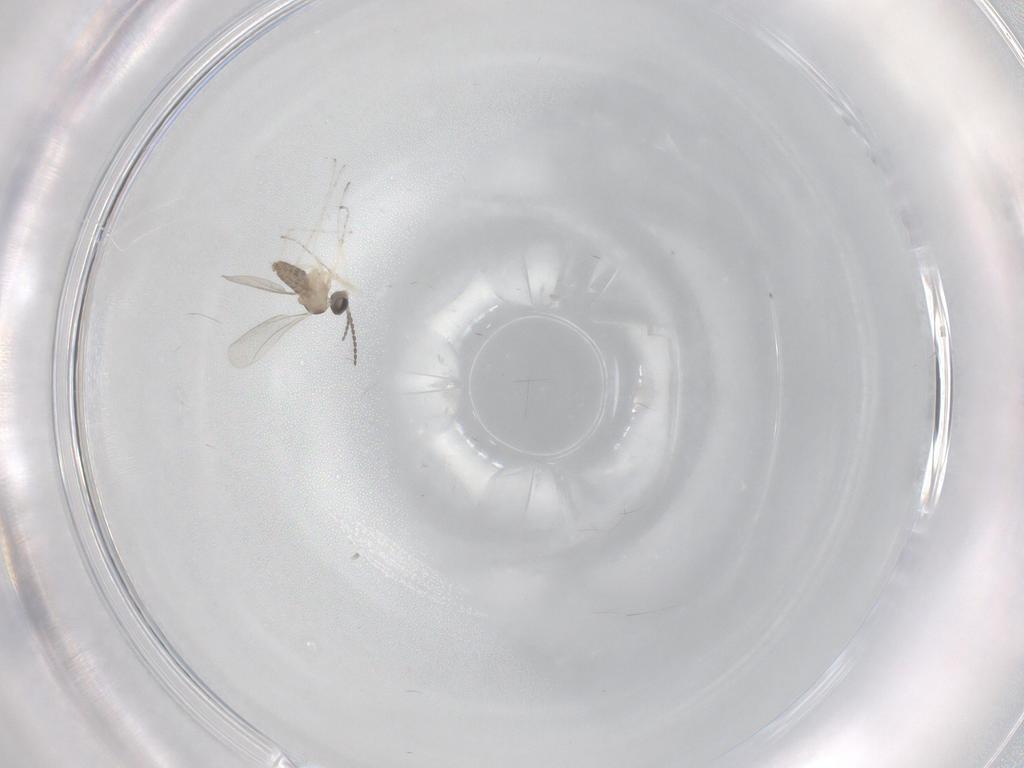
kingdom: Animalia
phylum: Arthropoda
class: Insecta
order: Diptera
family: Cecidomyiidae
